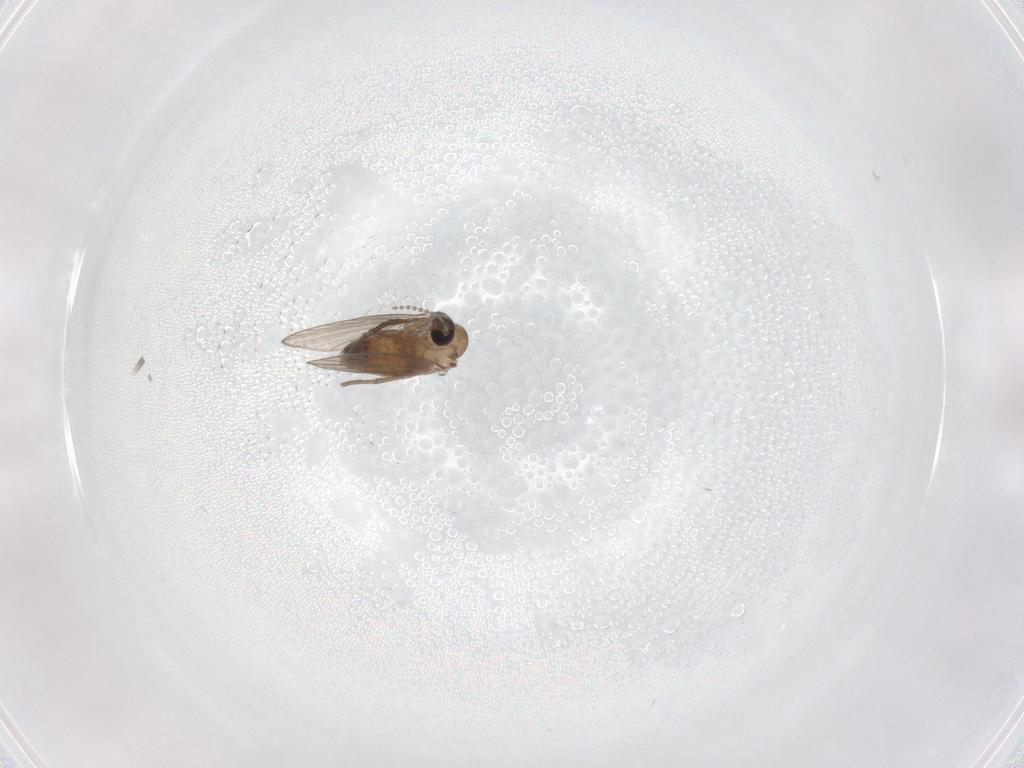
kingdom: Animalia
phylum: Arthropoda
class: Insecta
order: Diptera
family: Psychodidae
